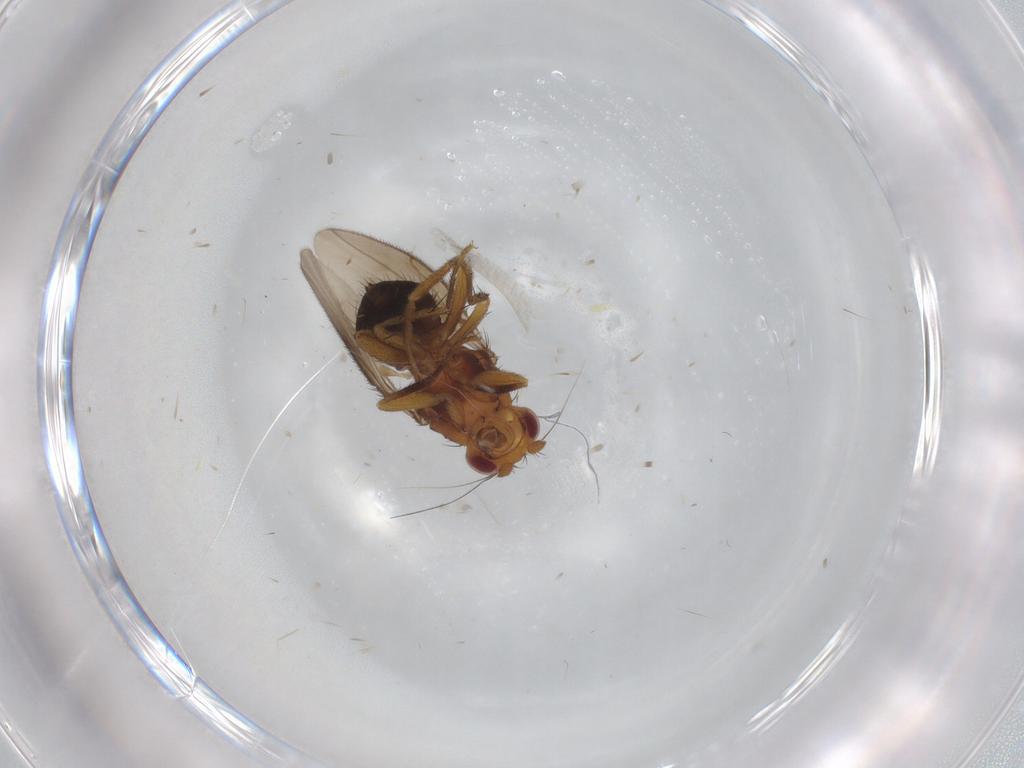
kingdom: Animalia
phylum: Arthropoda
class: Insecta
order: Diptera
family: Sphaeroceridae
